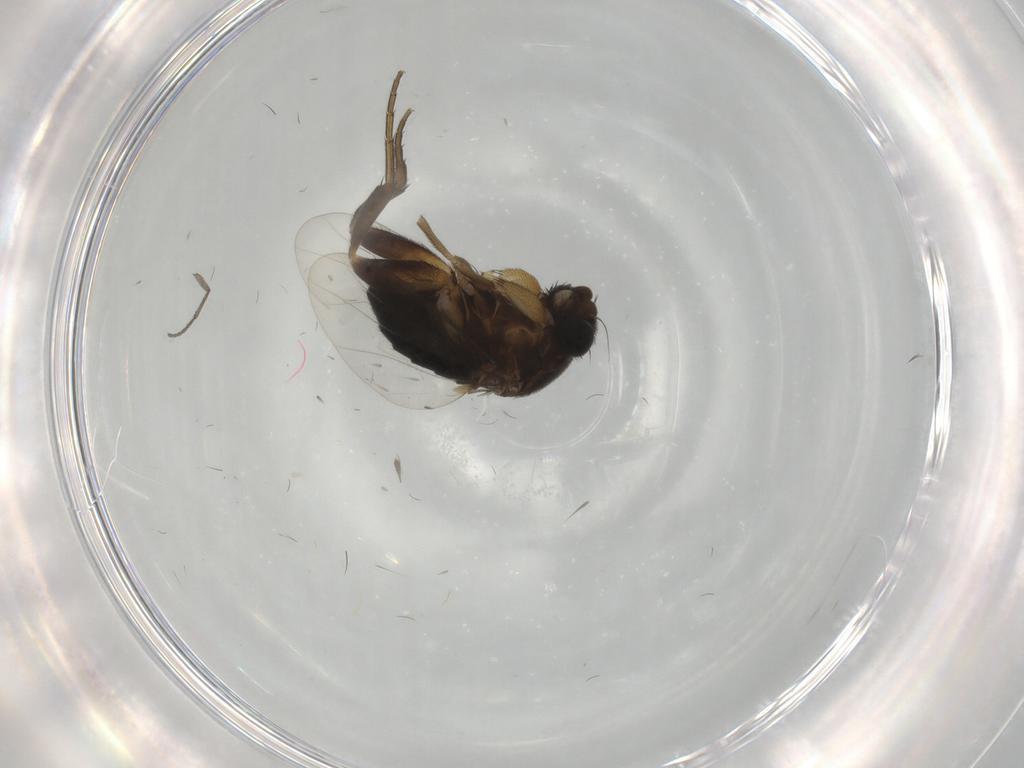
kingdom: Animalia
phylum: Arthropoda
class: Insecta
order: Diptera
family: Phoridae
